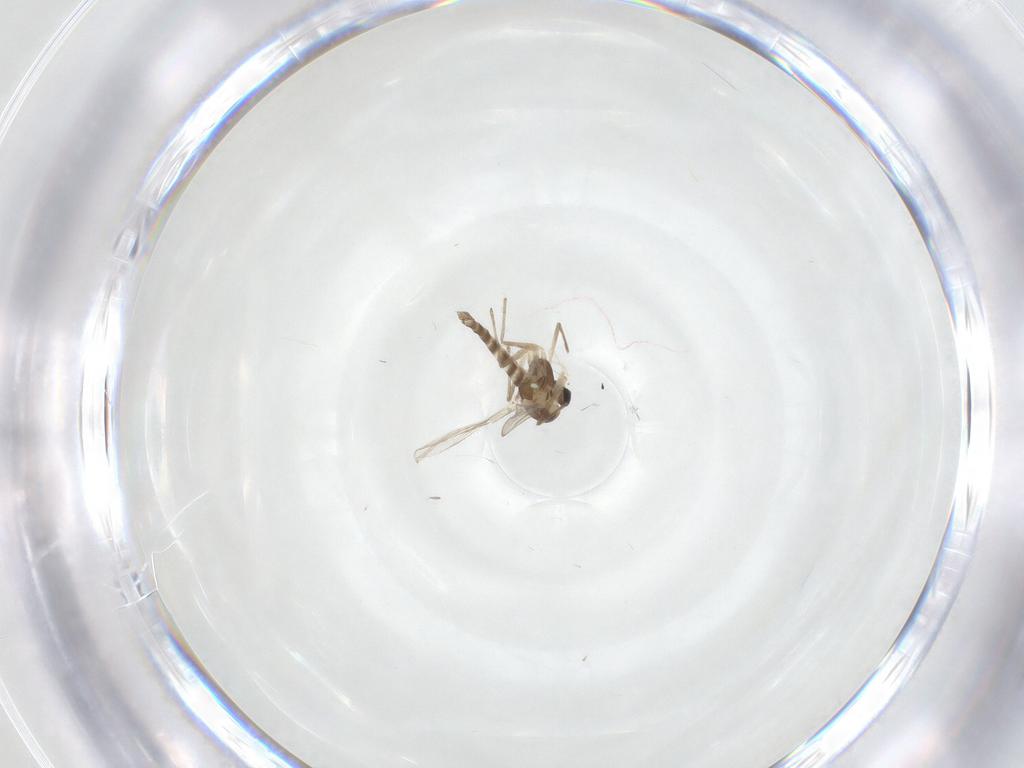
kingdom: Animalia
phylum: Arthropoda
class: Insecta
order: Diptera
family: Chironomidae
